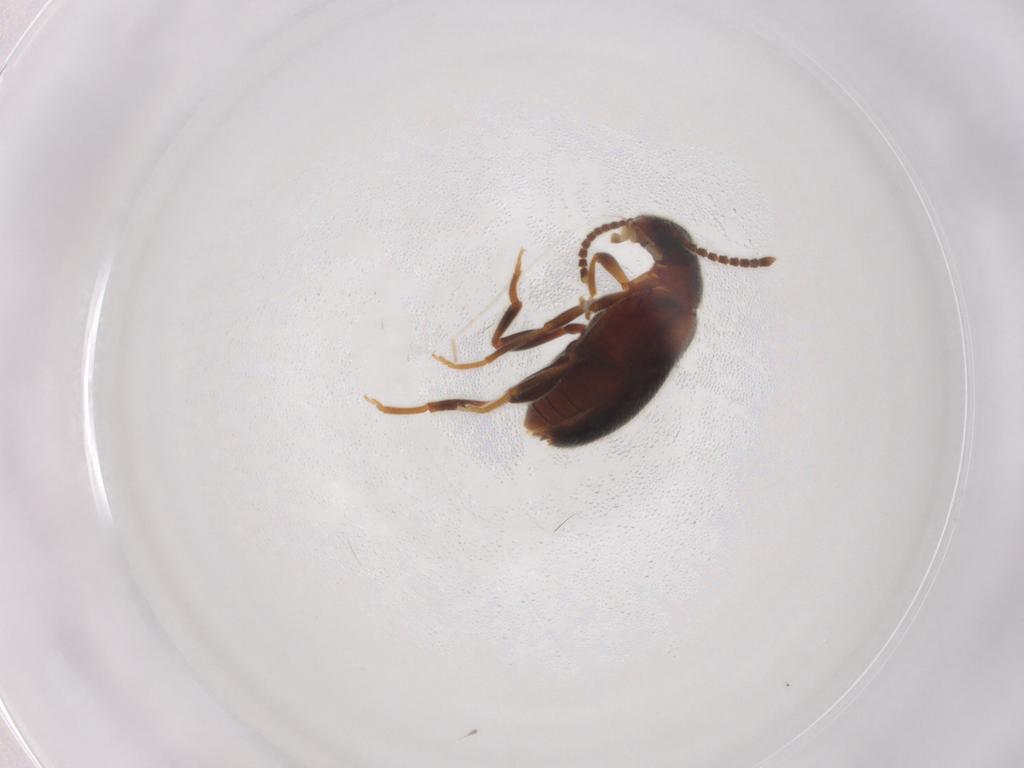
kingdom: Animalia
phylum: Arthropoda
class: Insecta
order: Coleoptera
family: Aderidae
